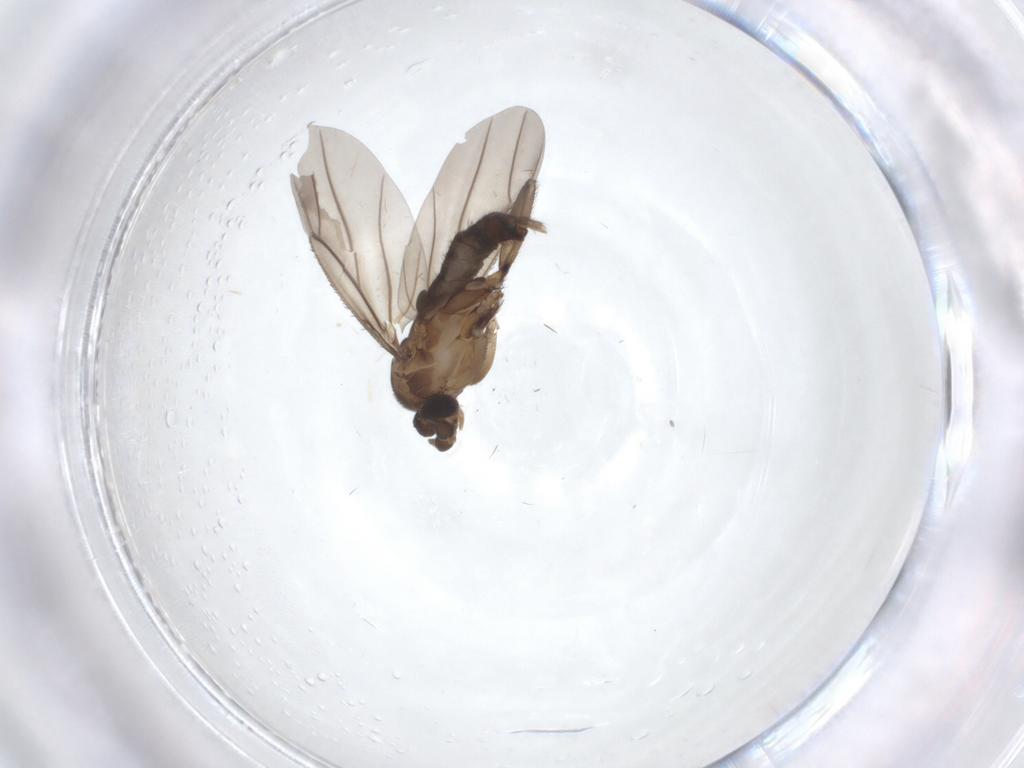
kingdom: Animalia
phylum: Arthropoda
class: Insecta
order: Diptera
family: Phoridae
